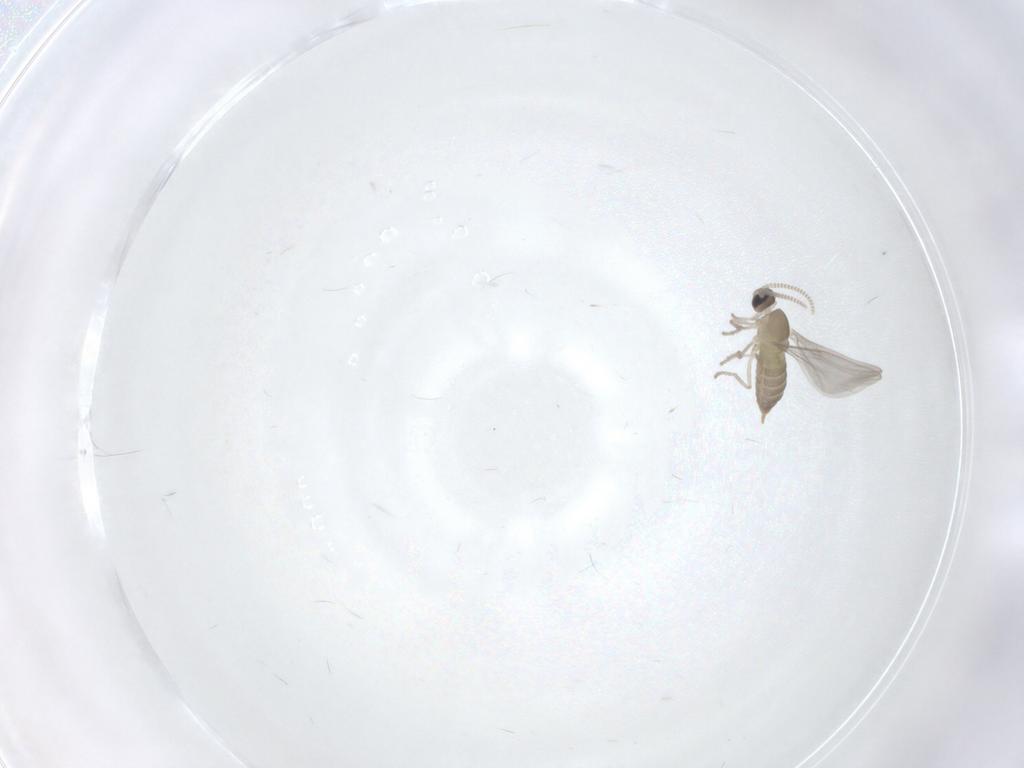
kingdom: Animalia
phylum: Arthropoda
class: Insecta
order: Diptera
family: Cecidomyiidae
